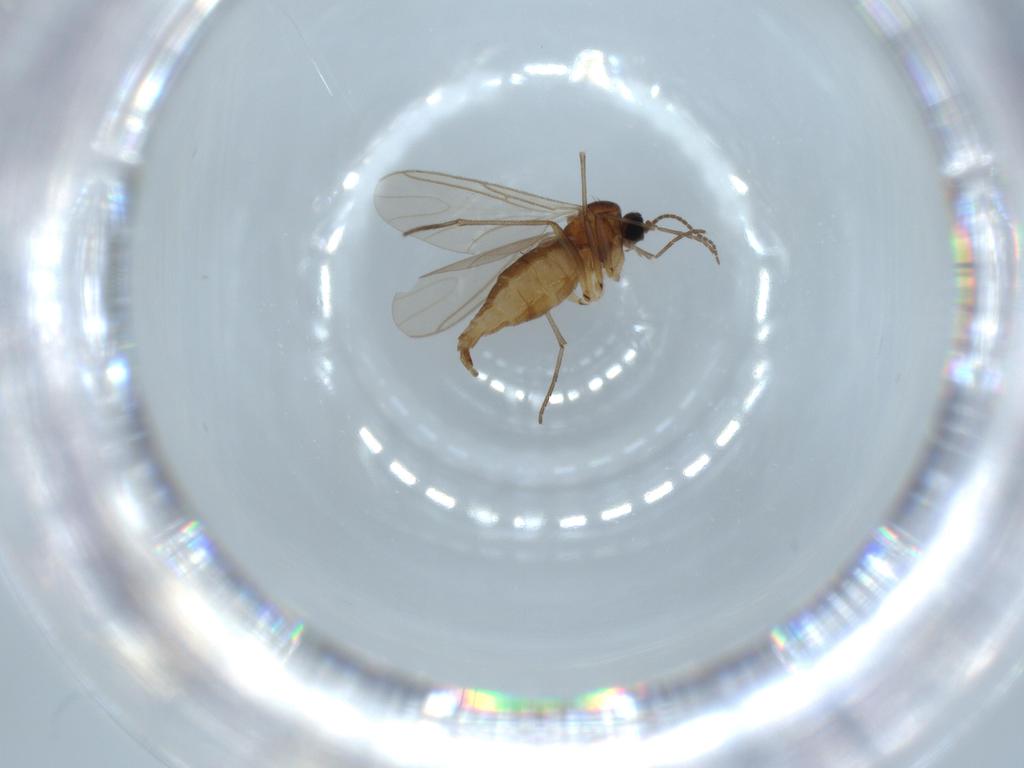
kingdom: Animalia
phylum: Arthropoda
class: Insecta
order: Diptera
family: Sciaridae
